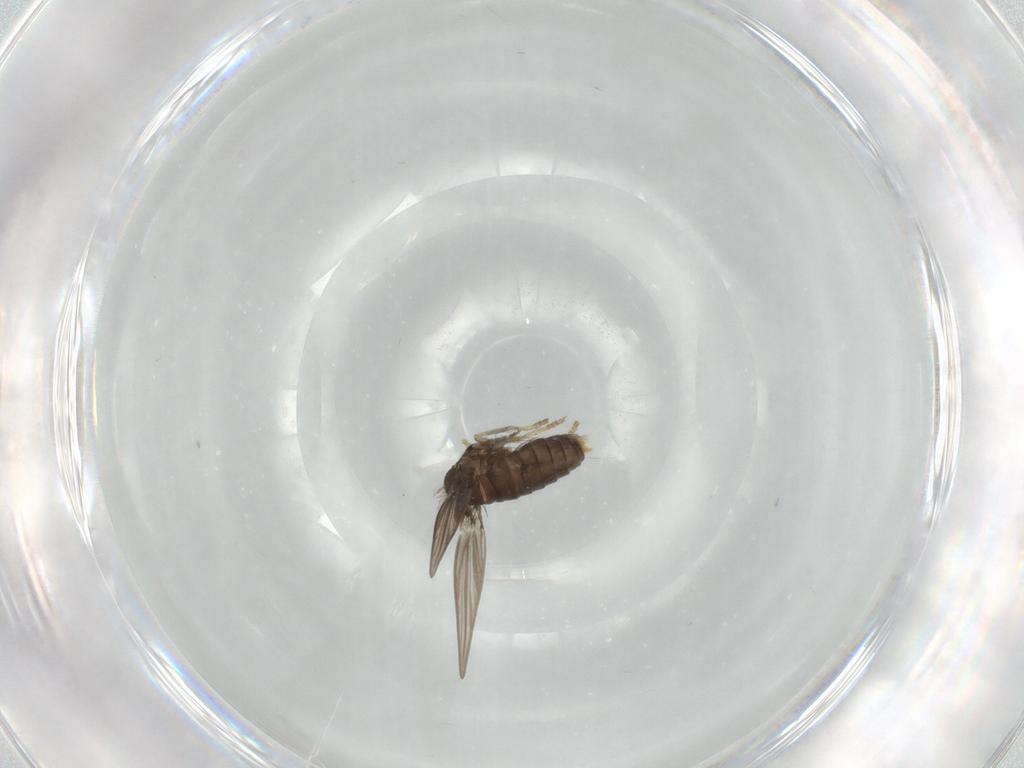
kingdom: Animalia
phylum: Arthropoda
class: Insecta
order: Diptera
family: Psychodidae
